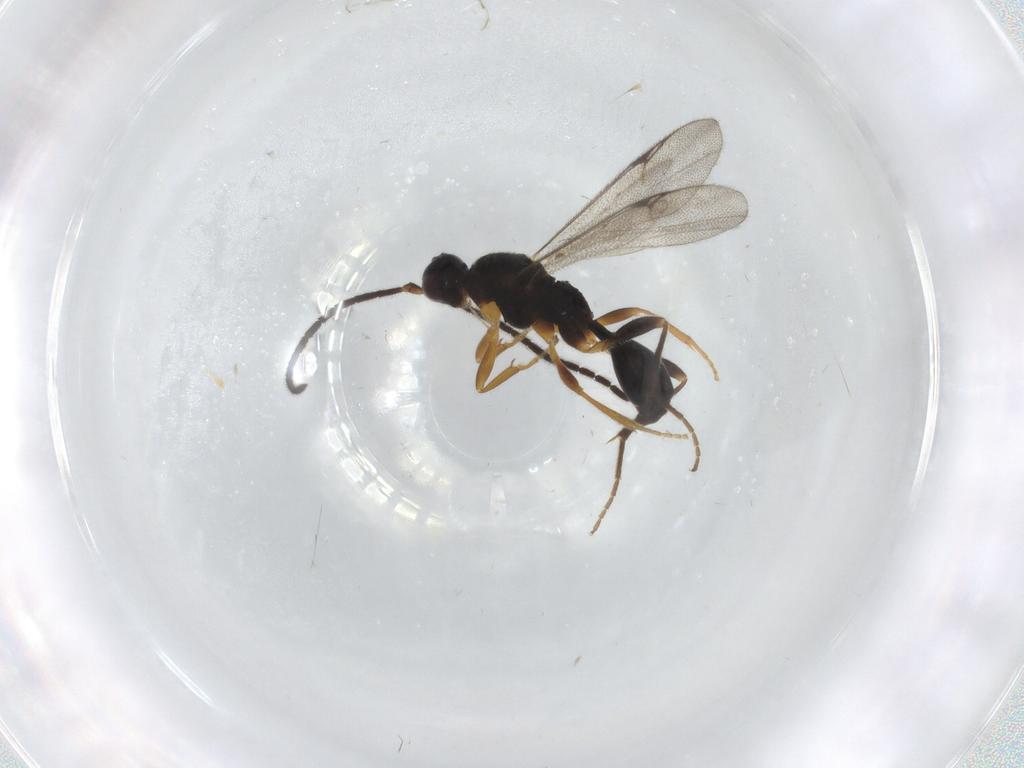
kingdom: Animalia
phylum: Arthropoda
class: Insecta
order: Hymenoptera
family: Proctotrupidae
